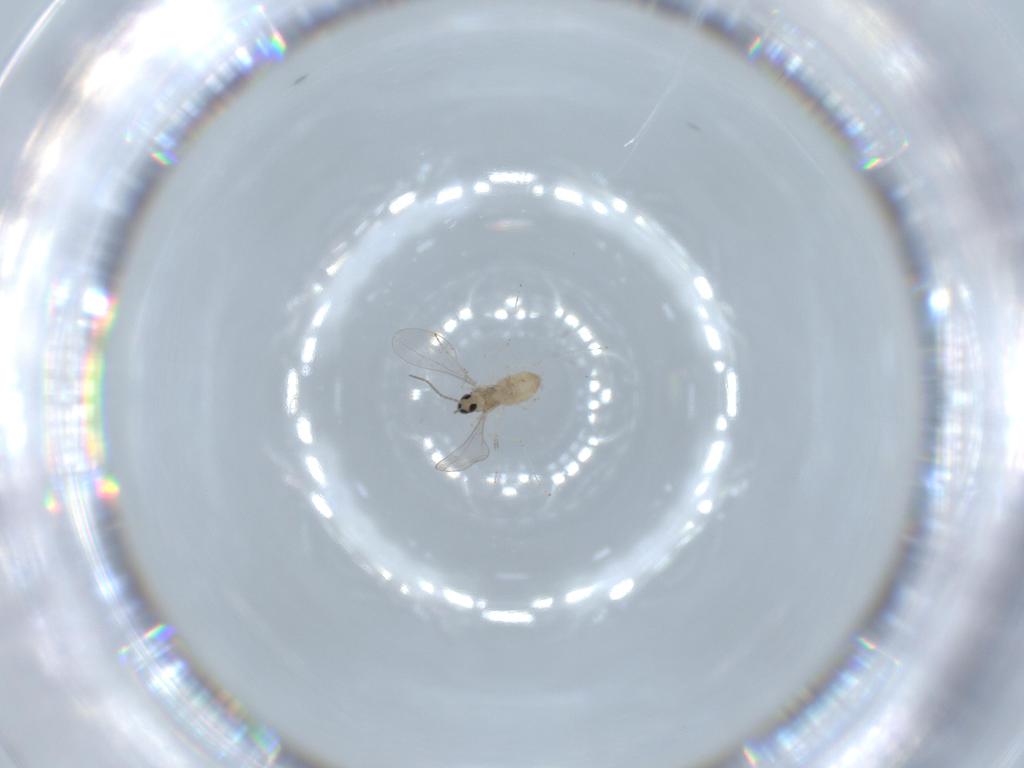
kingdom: Animalia
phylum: Arthropoda
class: Insecta
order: Diptera
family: Cecidomyiidae
